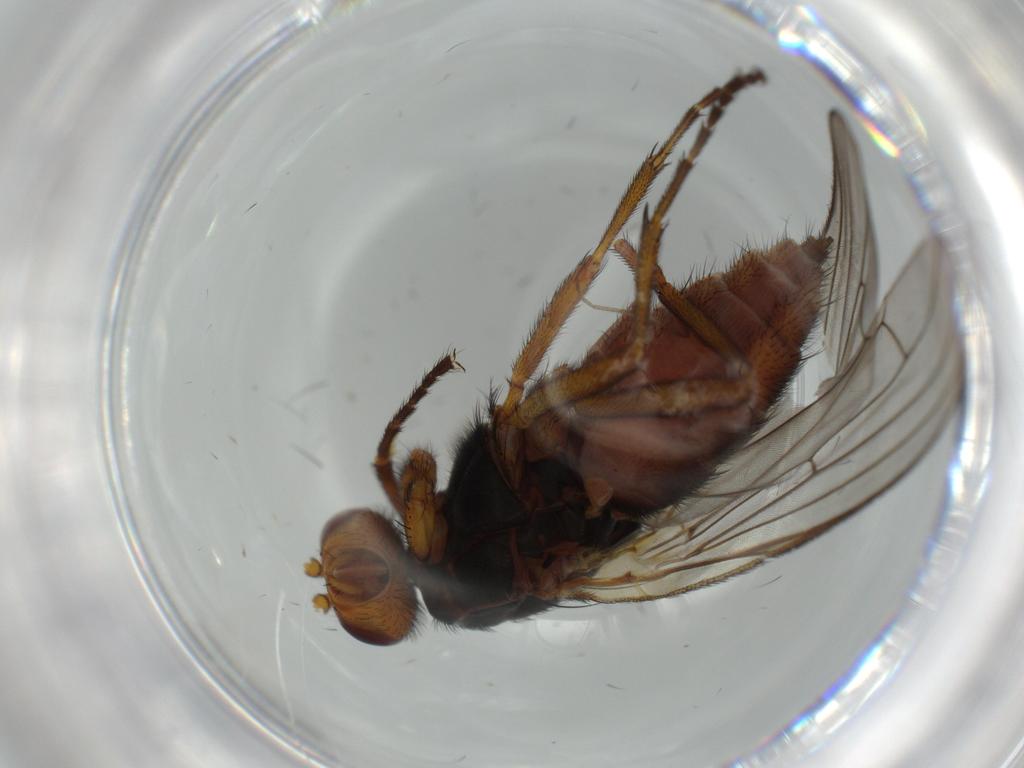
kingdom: Animalia
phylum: Arthropoda
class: Insecta
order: Diptera
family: Heleomyzidae
